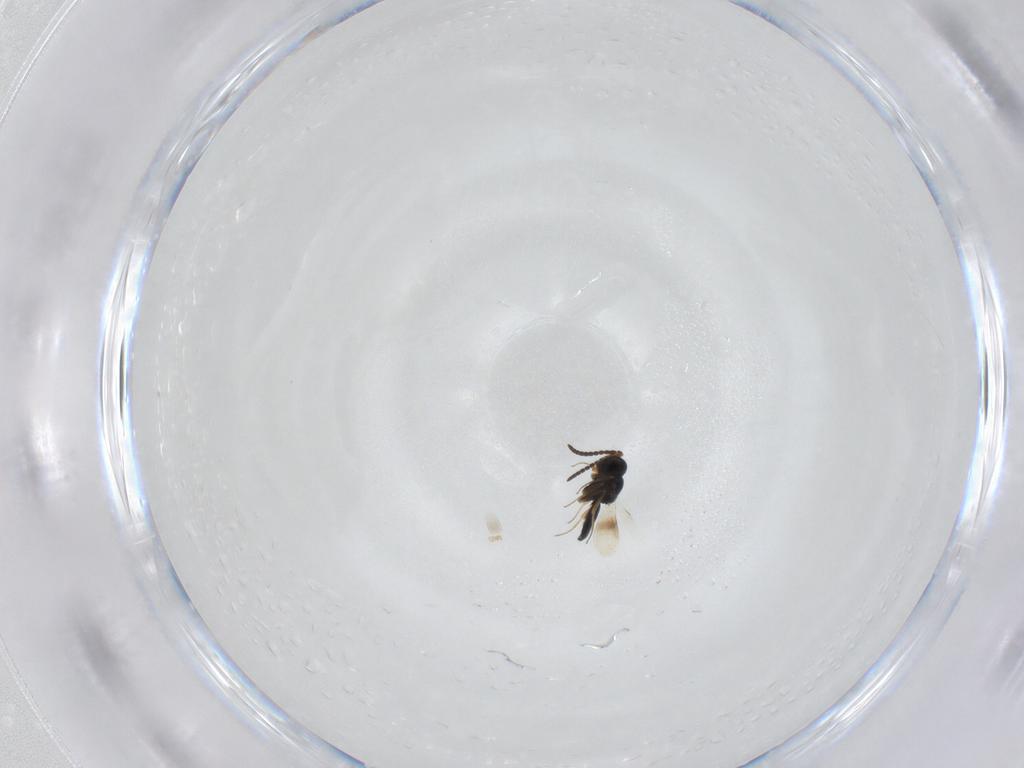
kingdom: Animalia
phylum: Arthropoda
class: Insecta
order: Hymenoptera
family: Scelionidae
